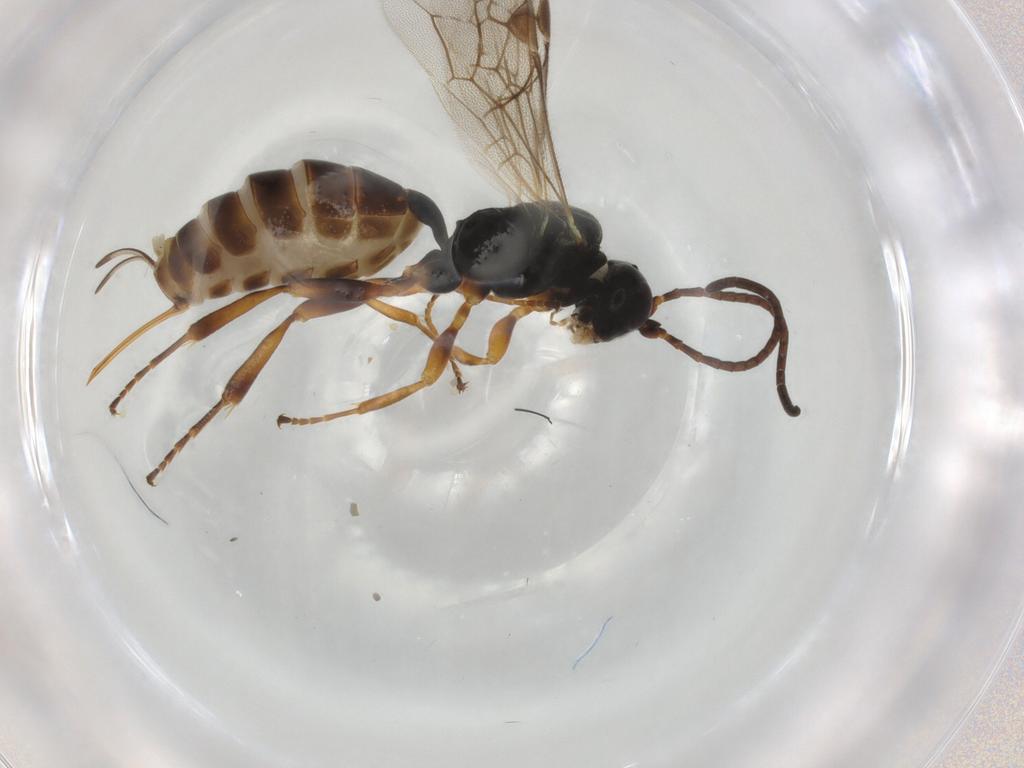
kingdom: Animalia
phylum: Arthropoda
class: Insecta
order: Hymenoptera
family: Ichneumonidae
